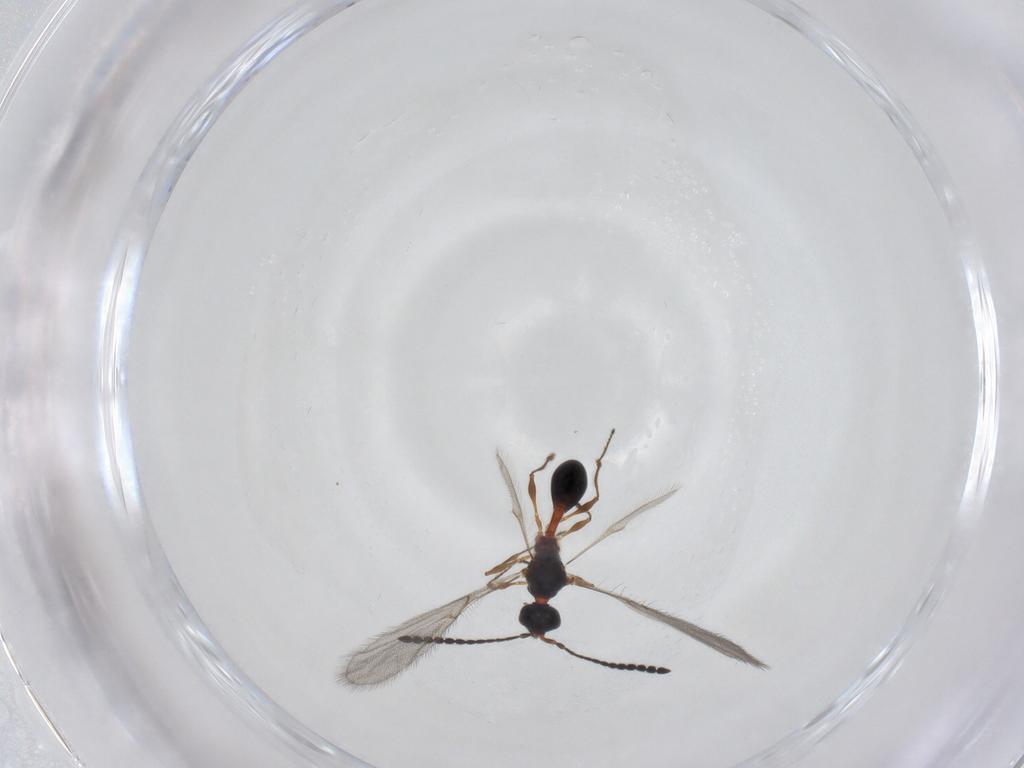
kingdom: Animalia
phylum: Arthropoda
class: Insecta
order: Hymenoptera
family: Diapriidae
